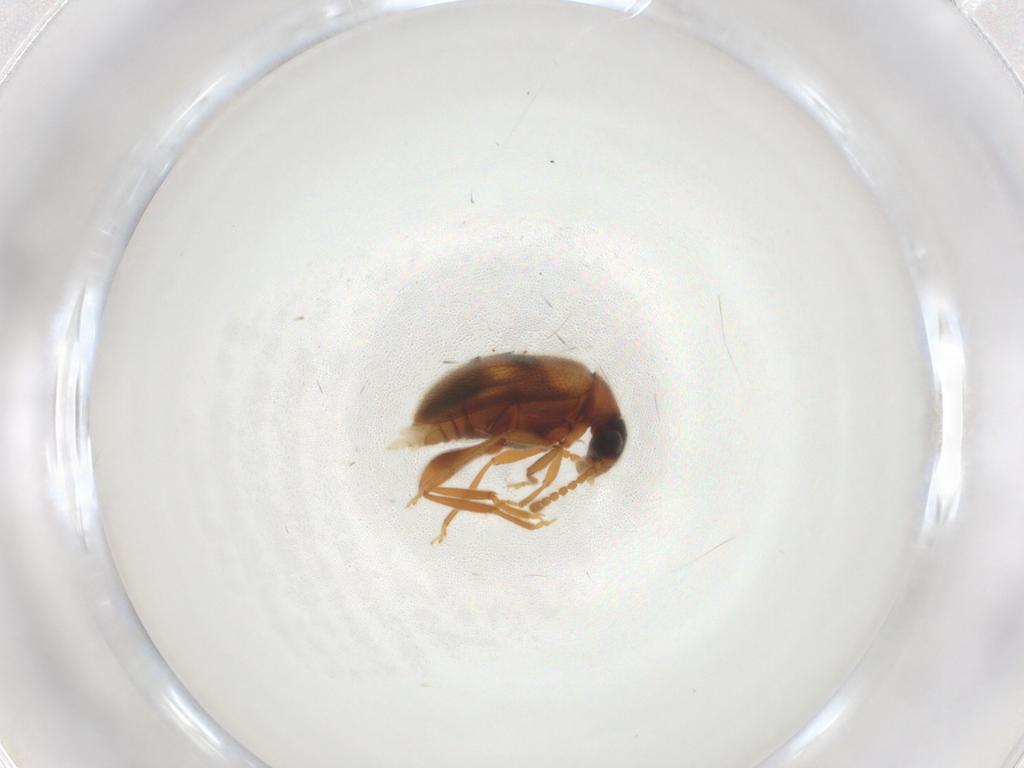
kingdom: Animalia
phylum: Arthropoda
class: Insecta
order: Coleoptera
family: Aderidae
